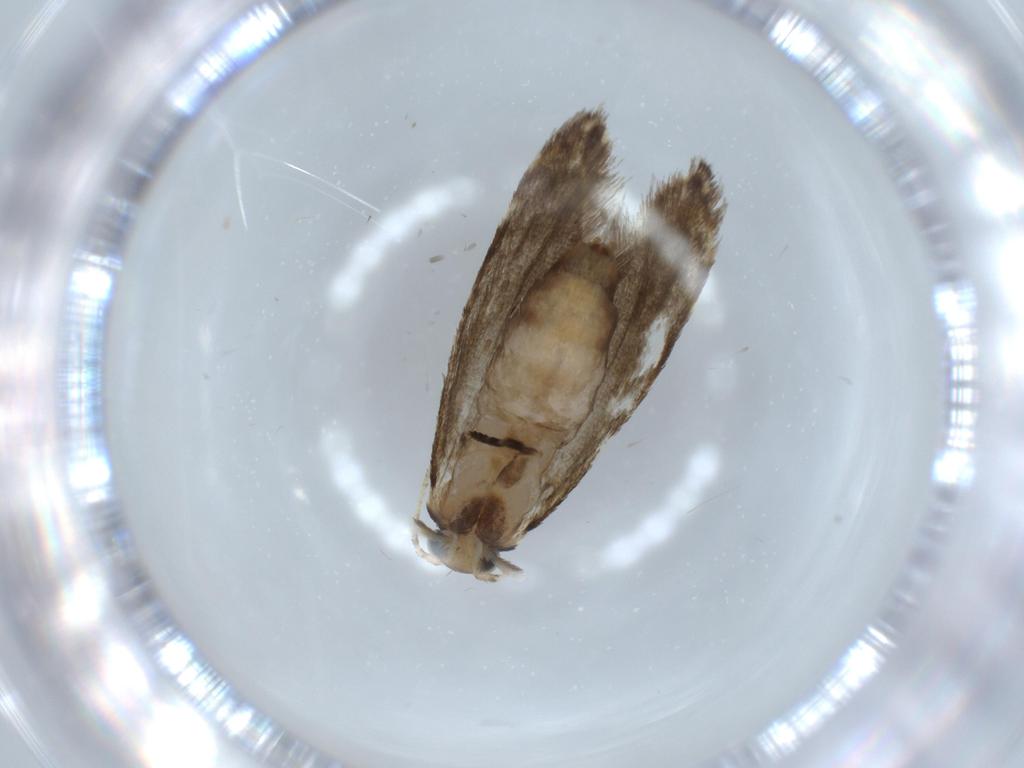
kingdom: Animalia
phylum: Arthropoda
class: Insecta
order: Lepidoptera
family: Tineidae
